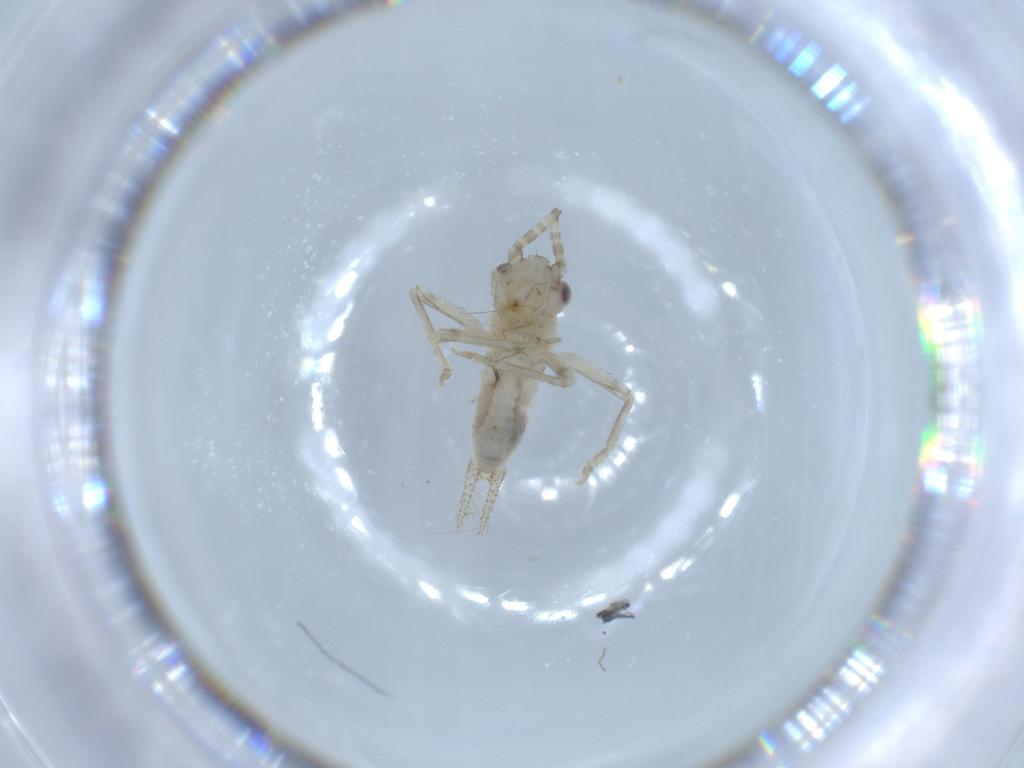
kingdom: Animalia
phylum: Arthropoda
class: Insecta
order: Orthoptera
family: Trigonidiidae
